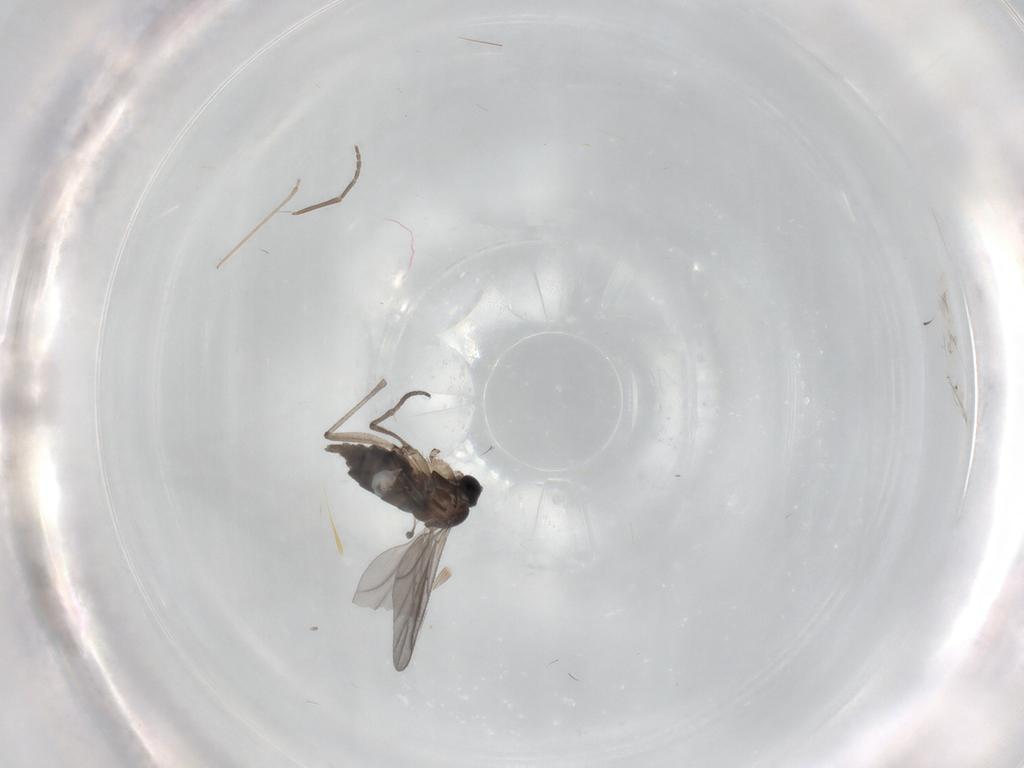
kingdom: Animalia
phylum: Arthropoda
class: Insecta
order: Diptera
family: Sciaridae
